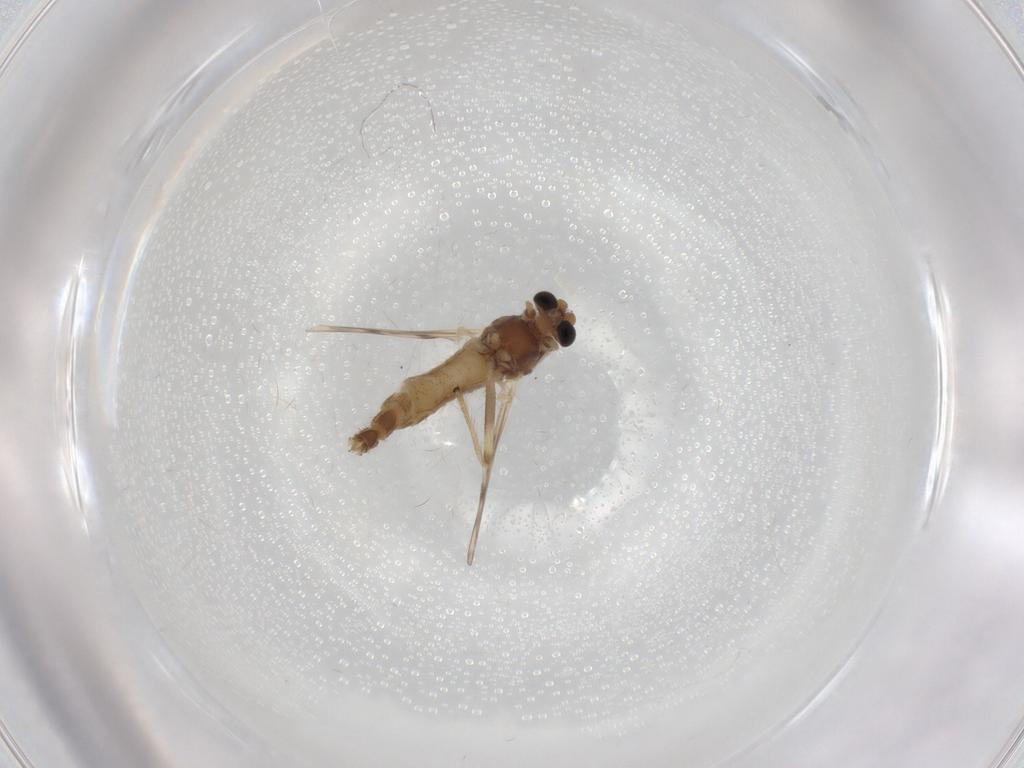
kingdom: Animalia
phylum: Arthropoda
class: Insecta
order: Diptera
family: Chironomidae
